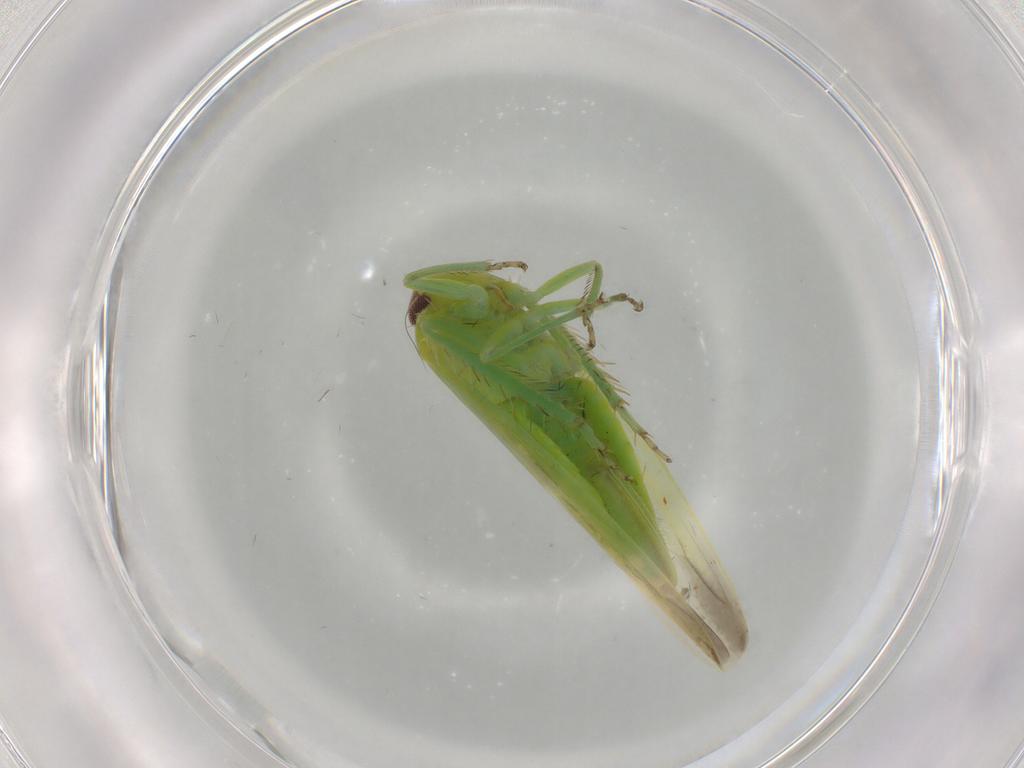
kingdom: Animalia
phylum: Arthropoda
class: Insecta
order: Hemiptera
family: Cicadellidae
